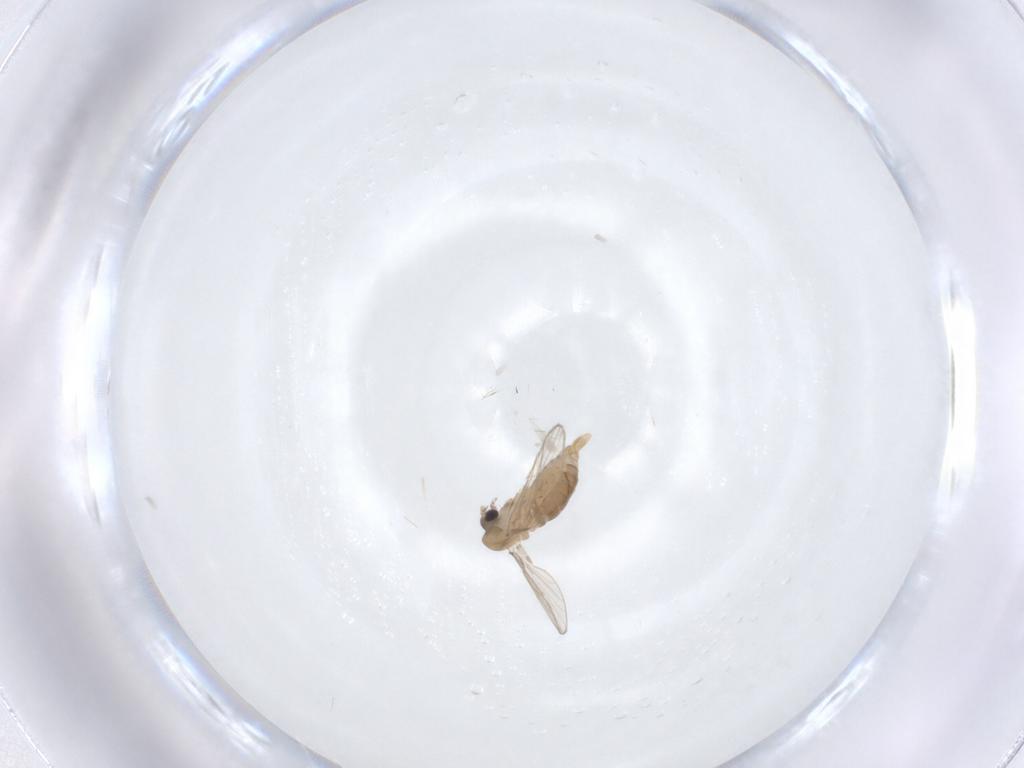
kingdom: Animalia
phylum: Arthropoda
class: Insecta
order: Diptera
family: Psychodidae
